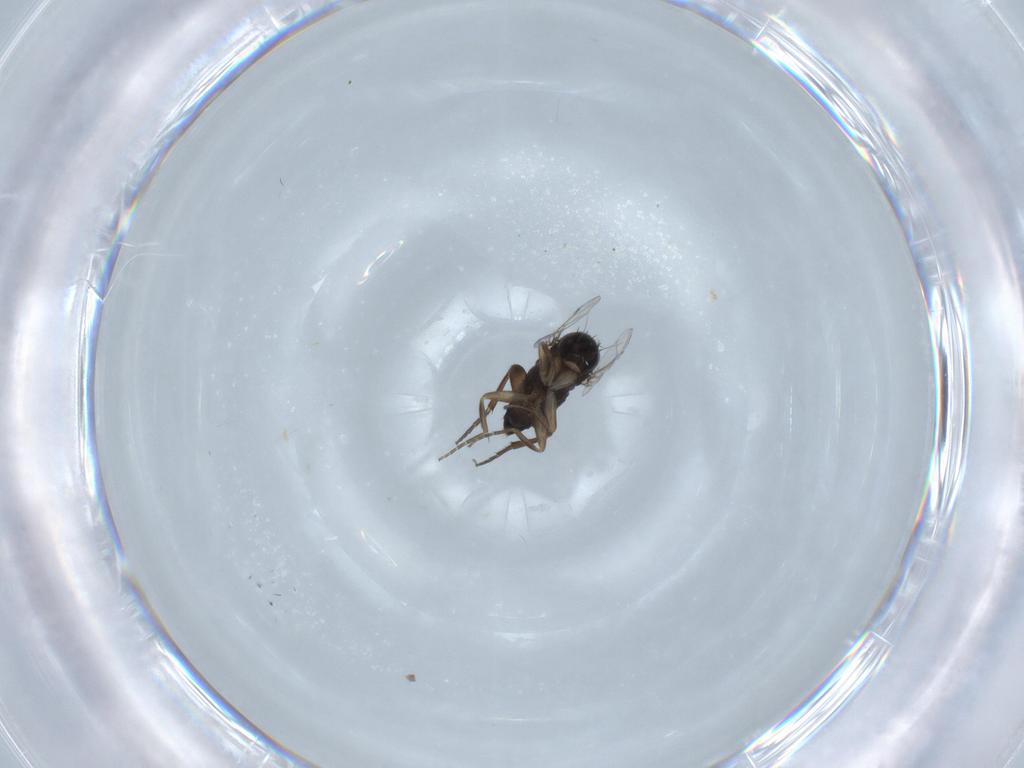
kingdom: Animalia
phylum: Arthropoda
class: Insecta
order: Diptera
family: Phoridae
